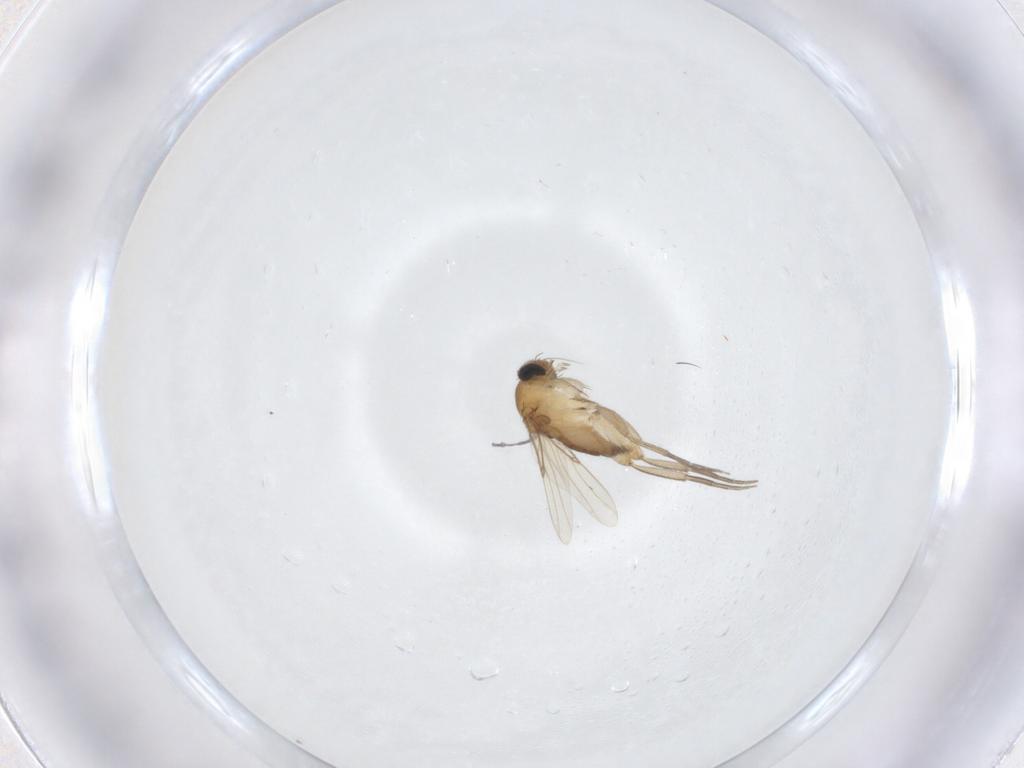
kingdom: Animalia
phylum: Arthropoda
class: Insecta
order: Diptera
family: Phoridae
